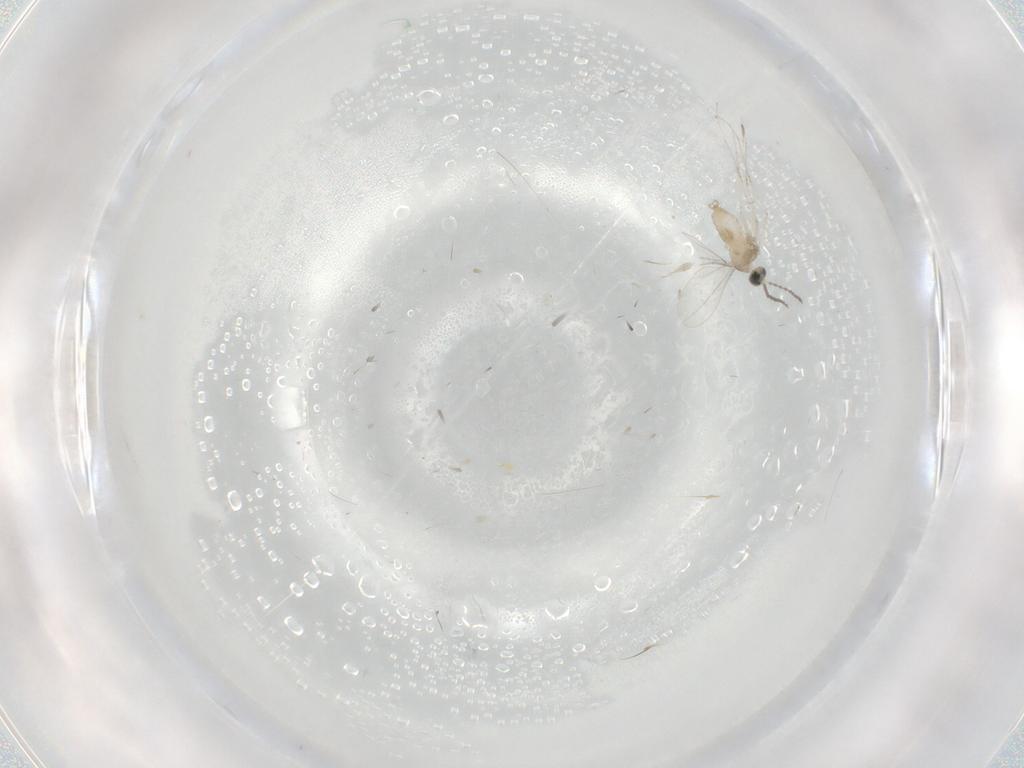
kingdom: Animalia
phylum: Arthropoda
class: Insecta
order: Diptera
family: Cecidomyiidae
